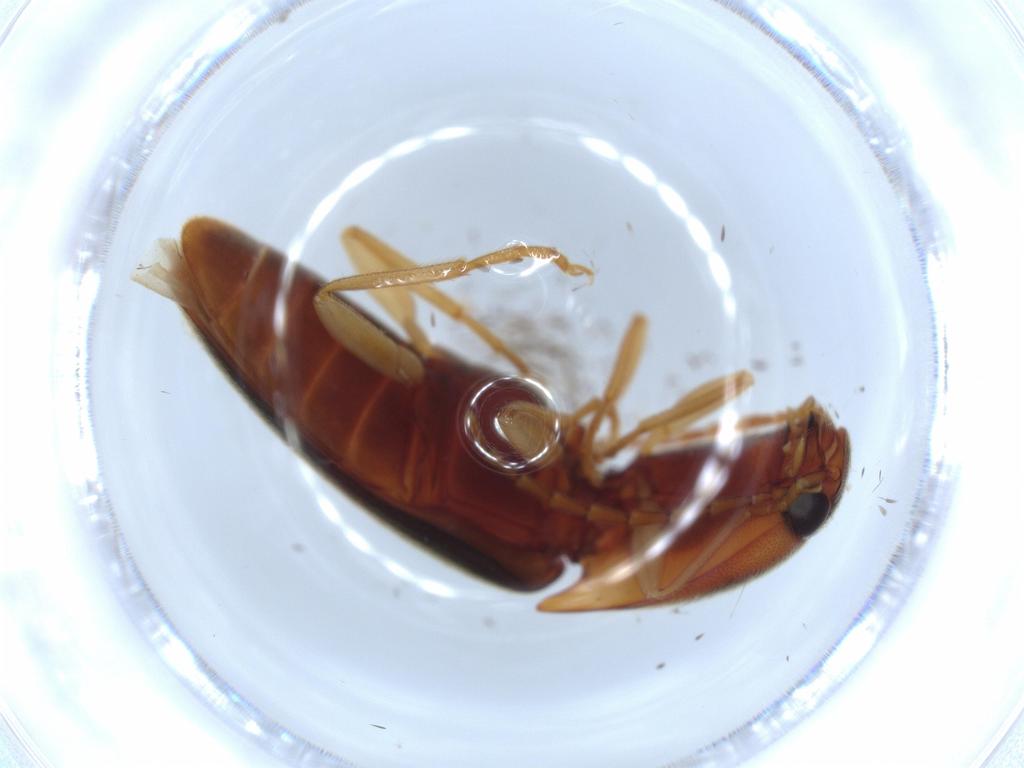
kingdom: Animalia
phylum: Arthropoda
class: Insecta
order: Coleoptera
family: Elateridae
